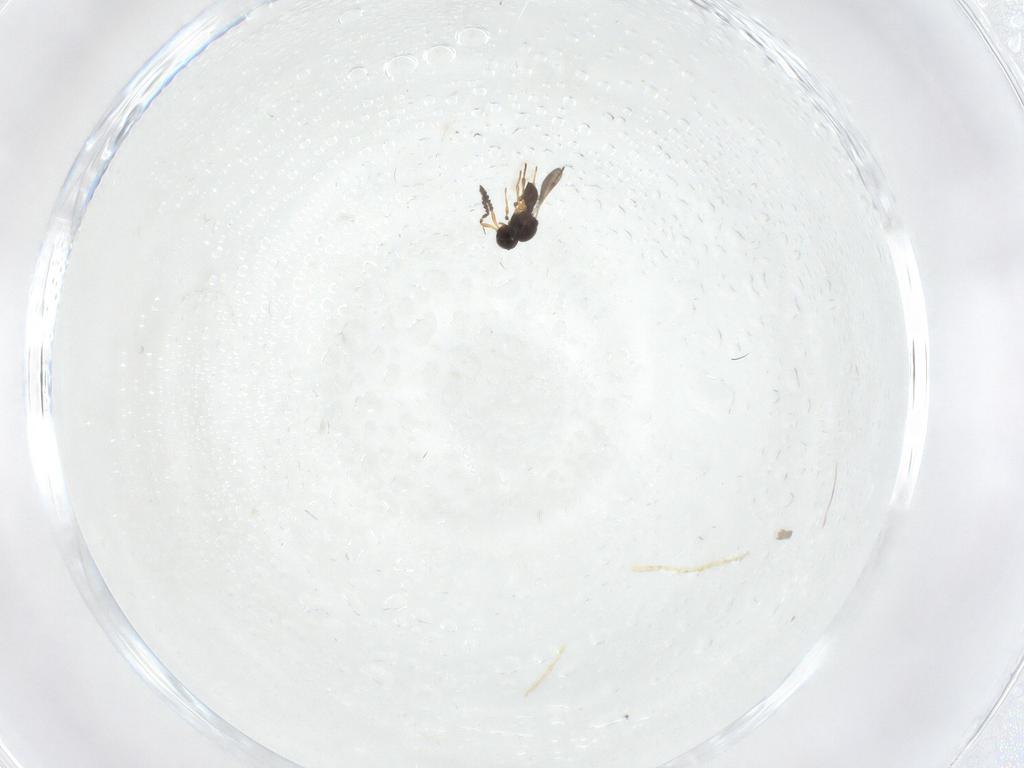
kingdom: Animalia
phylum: Arthropoda
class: Insecta
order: Hymenoptera
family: Platygastridae
